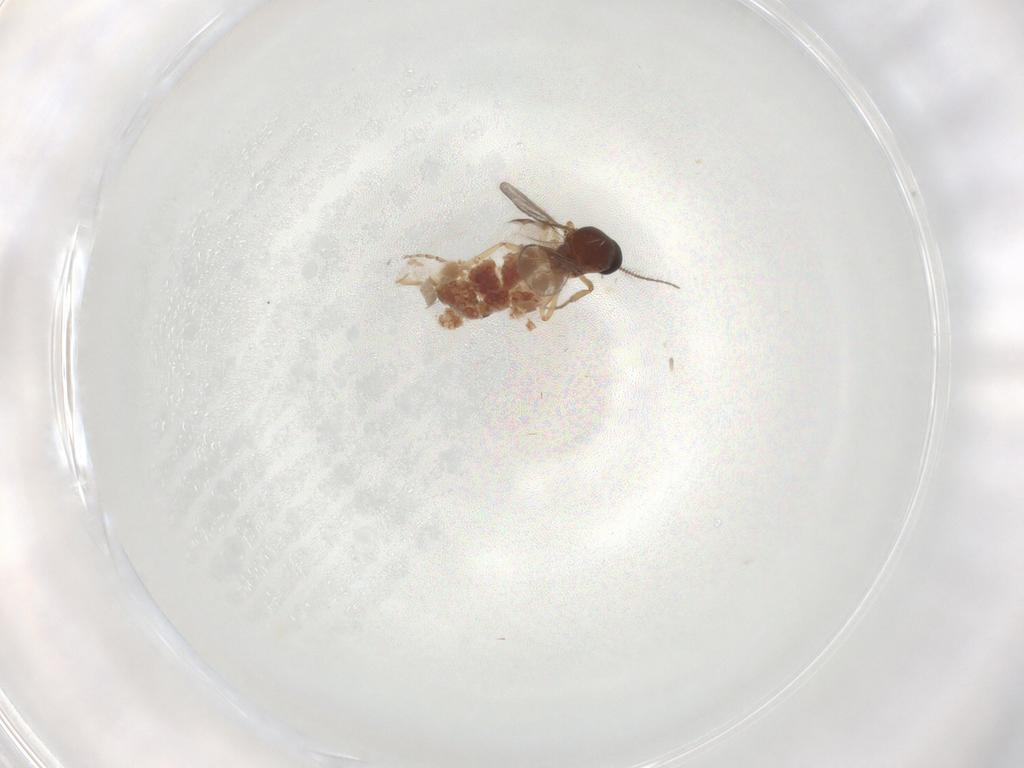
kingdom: Animalia
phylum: Arthropoda
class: Insecta
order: Diptera
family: Ceratopogonidae
